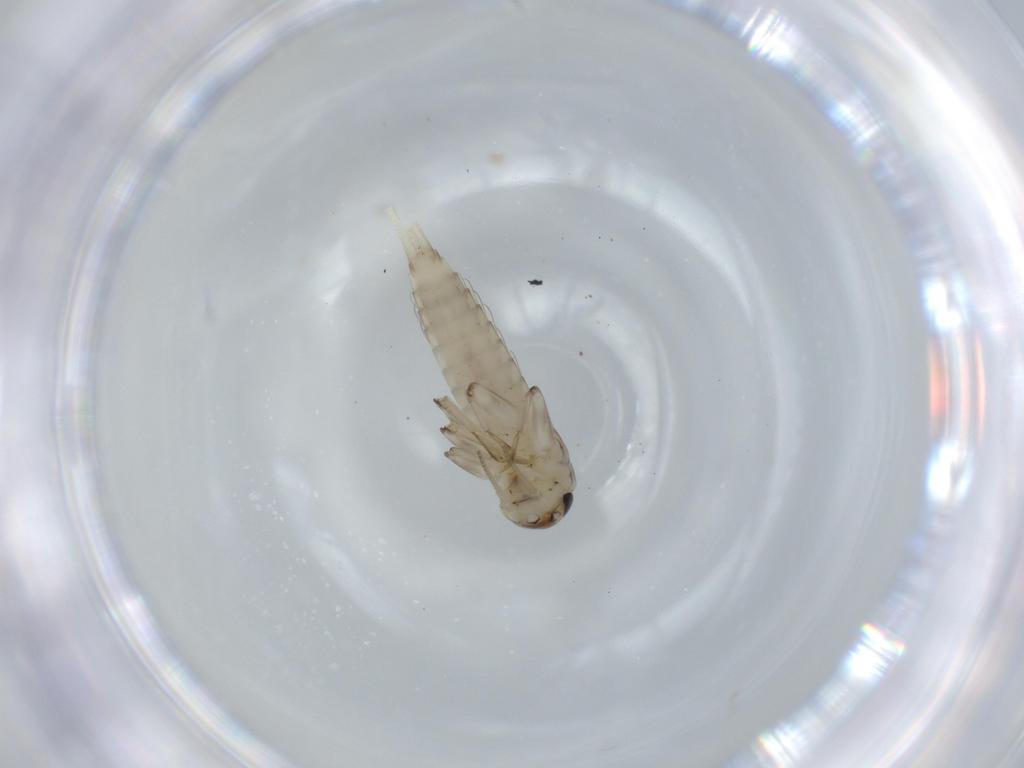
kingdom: Animalia
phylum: Arthropoda
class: Insecta
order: Ephemeroptera
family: Baetidae
